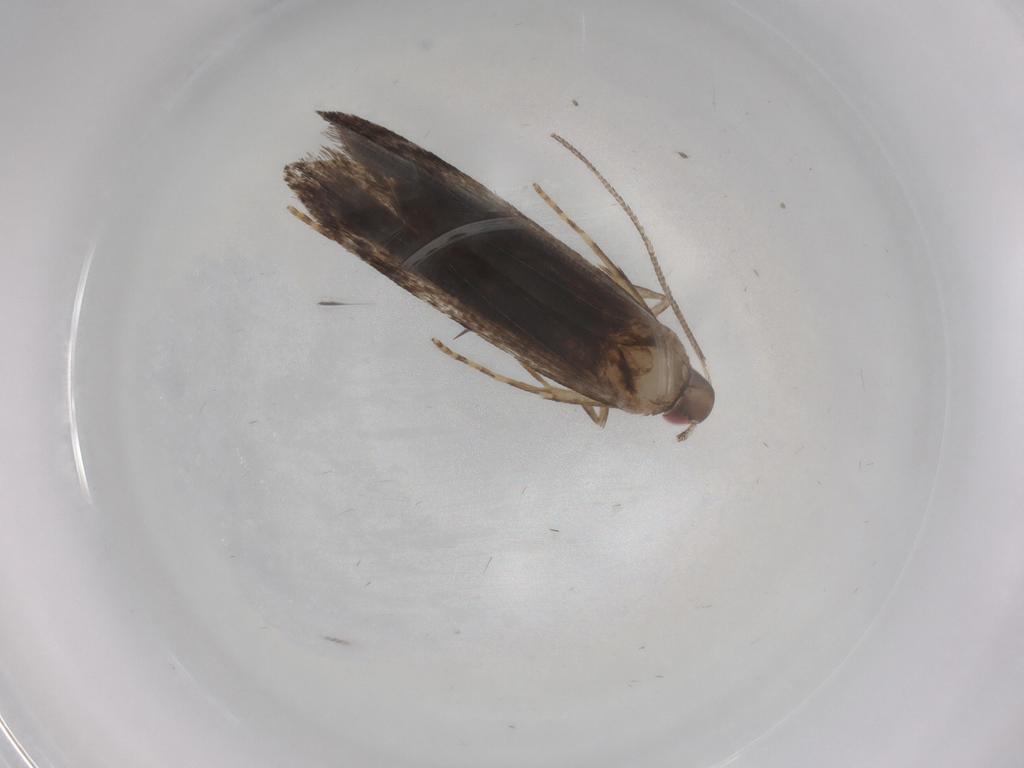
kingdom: Animalia
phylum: Arthropoda
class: Insecta
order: Lepidoptera
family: Gelechiidae
